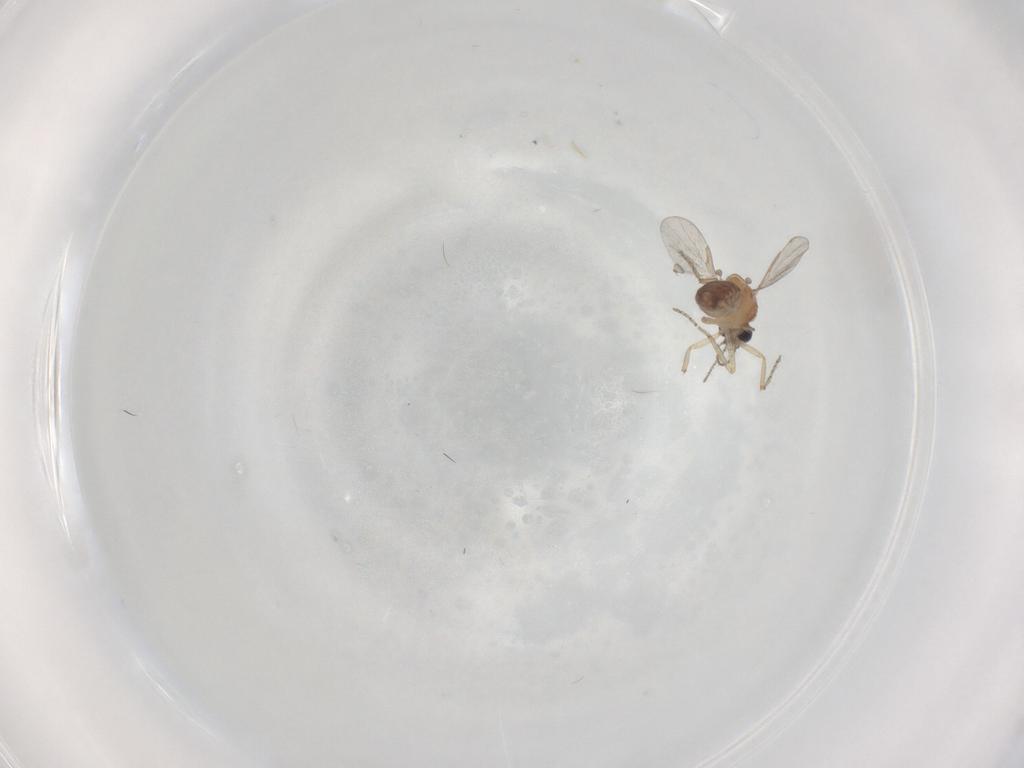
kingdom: Animalia
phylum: Arthropoda
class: Insecta
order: Diptera
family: Ceratopogonidae
